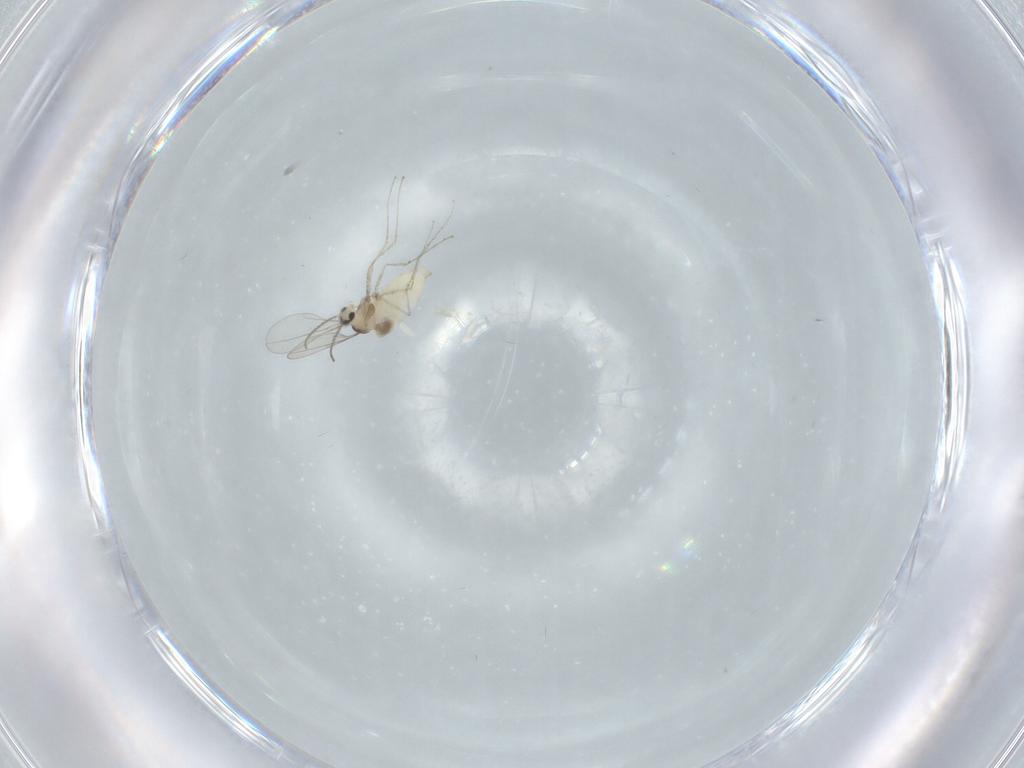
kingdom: Animalia
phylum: Arthropoda
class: Insecta
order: Diptera
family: Cecidomyiidae
